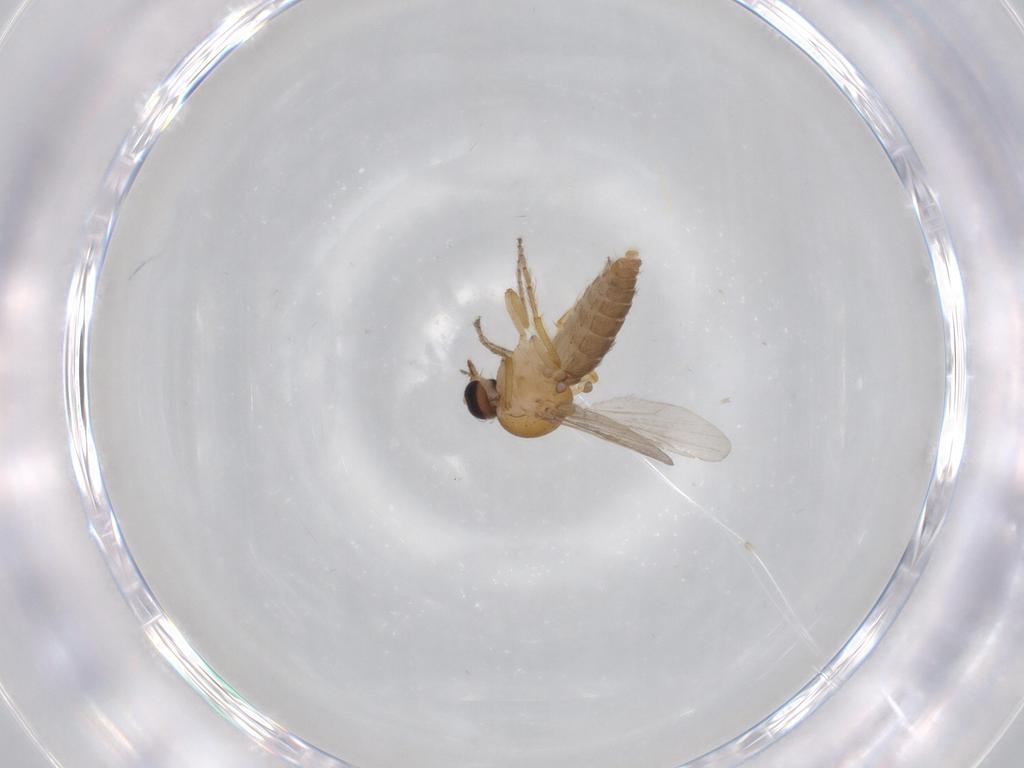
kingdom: Animalia
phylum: Arthropoda
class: Insecta
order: Diptera
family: Ceratopogonidae
